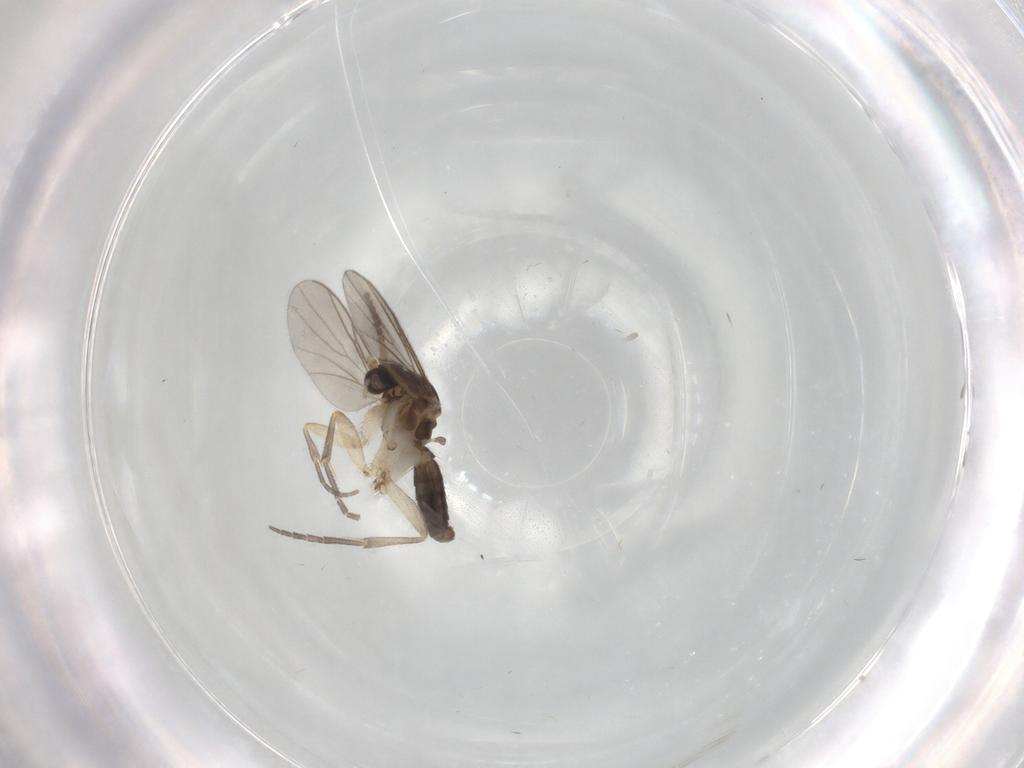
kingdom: Animalia
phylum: Arthropoda
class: Insecta
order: Diptera
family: Mycetophilidae
